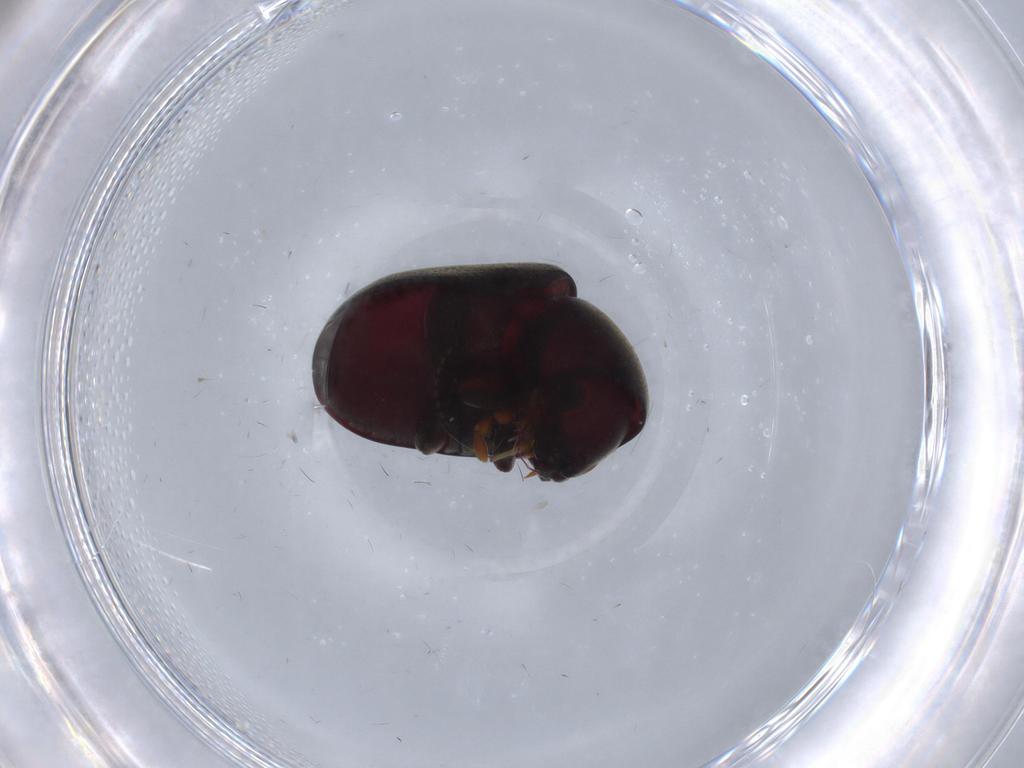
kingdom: Animalia
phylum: Arthropoda
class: Insecta
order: Coleoptera
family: Ptinidae
